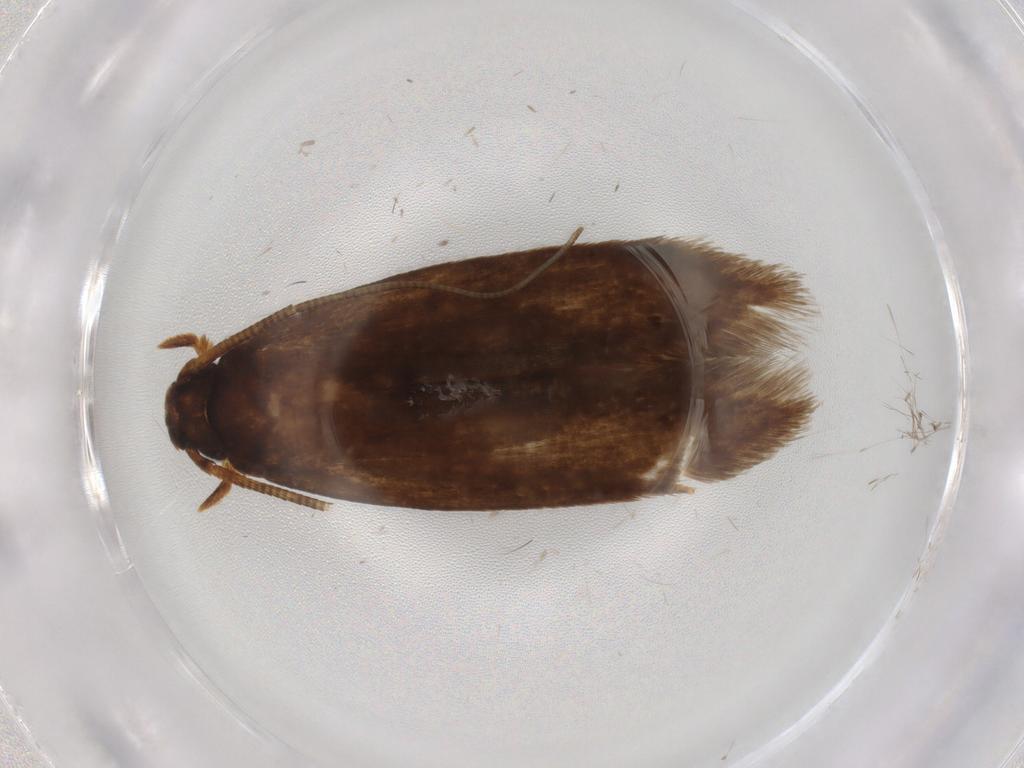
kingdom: Animalia
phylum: Arthropoda
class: Insecta
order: Lepidoptera
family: Tineidae
